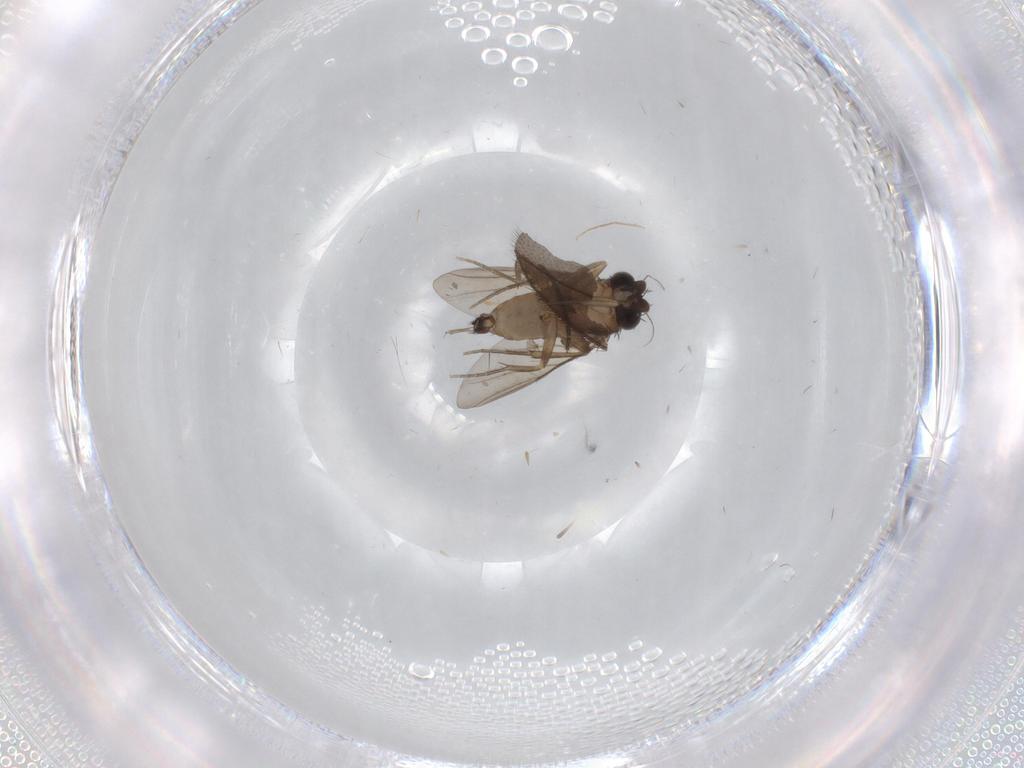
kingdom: Animalia
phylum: Arthropoda
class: Insecta
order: Diptera
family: Phoridae
